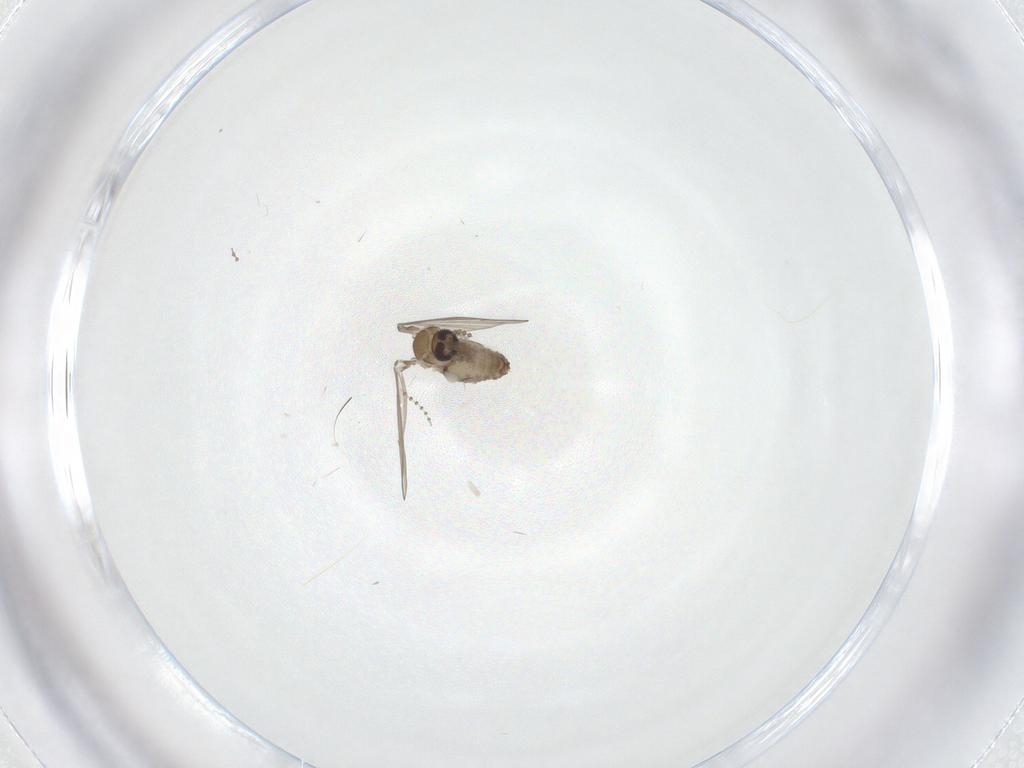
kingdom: Animalia
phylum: Arthropoda
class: Insecta
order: Diptera
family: Psychodidae
